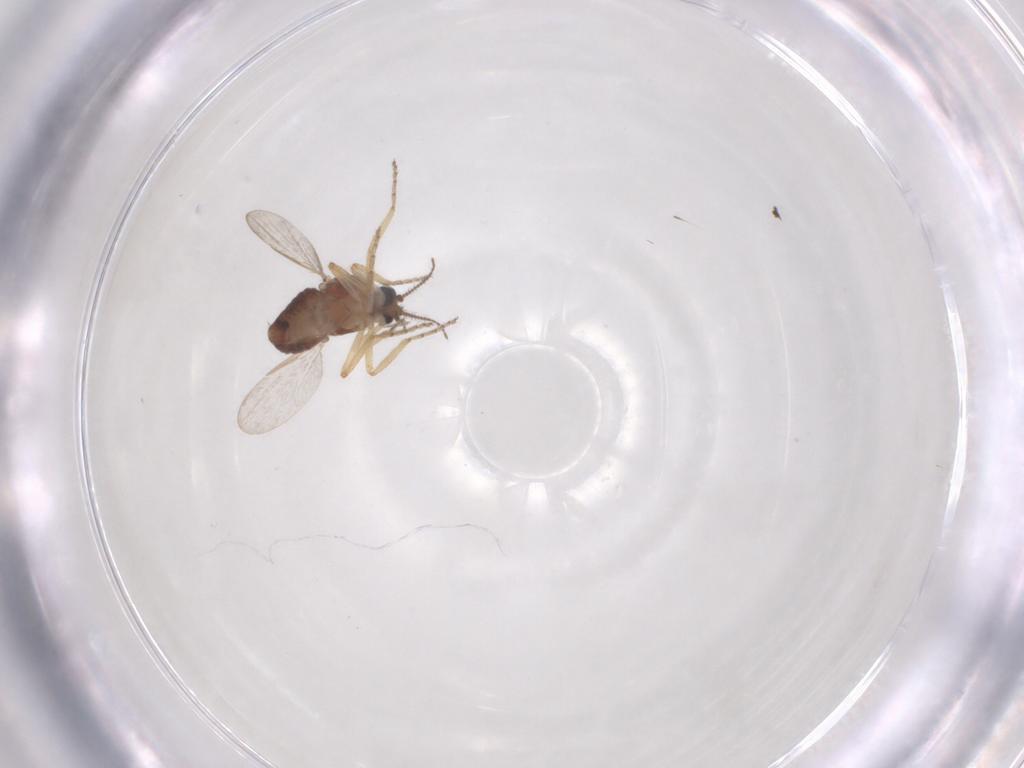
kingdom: Animalia
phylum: Arthropoda
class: Insecta
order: Diptera
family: Ceratopogonidae
